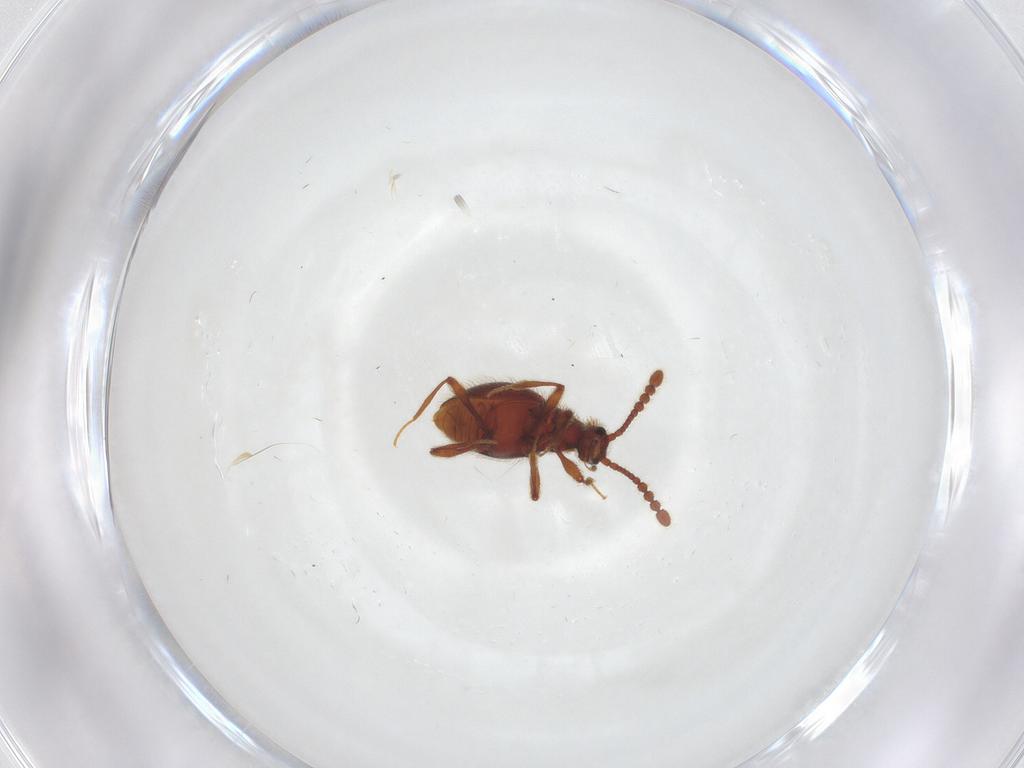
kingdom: Animalia
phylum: Arthropoda
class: Insecta
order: Coleoptera
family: Staphylinidae
